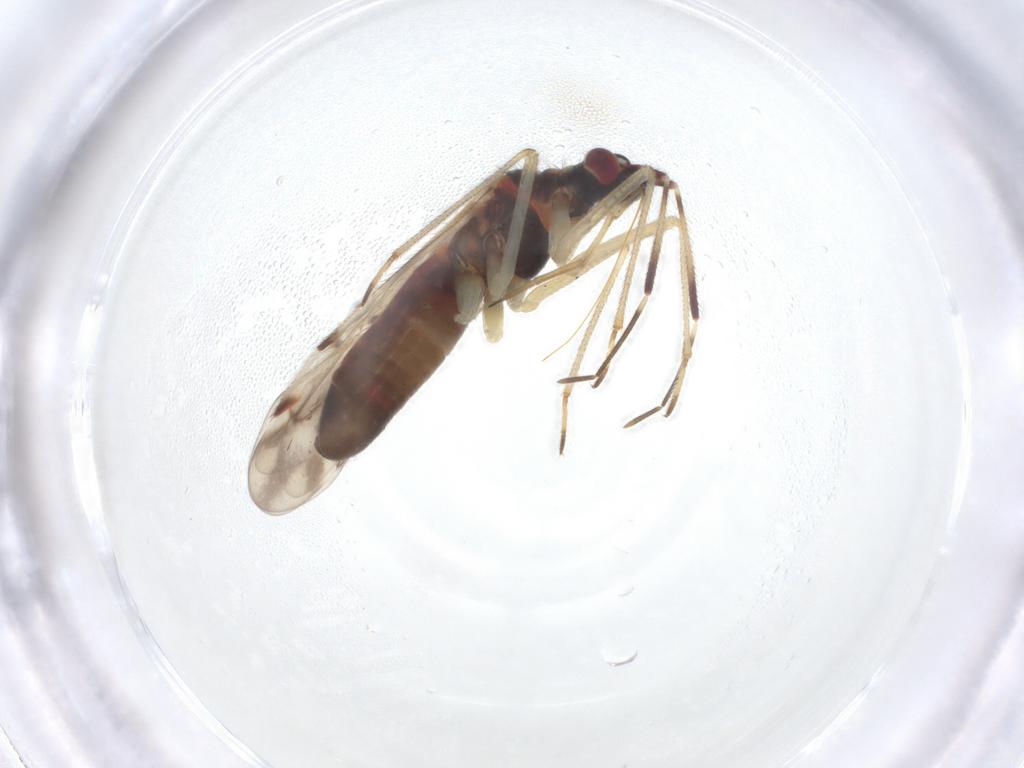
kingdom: Animalia
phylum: Arthropoda
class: Insecta
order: Hemiptera
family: Miridae
